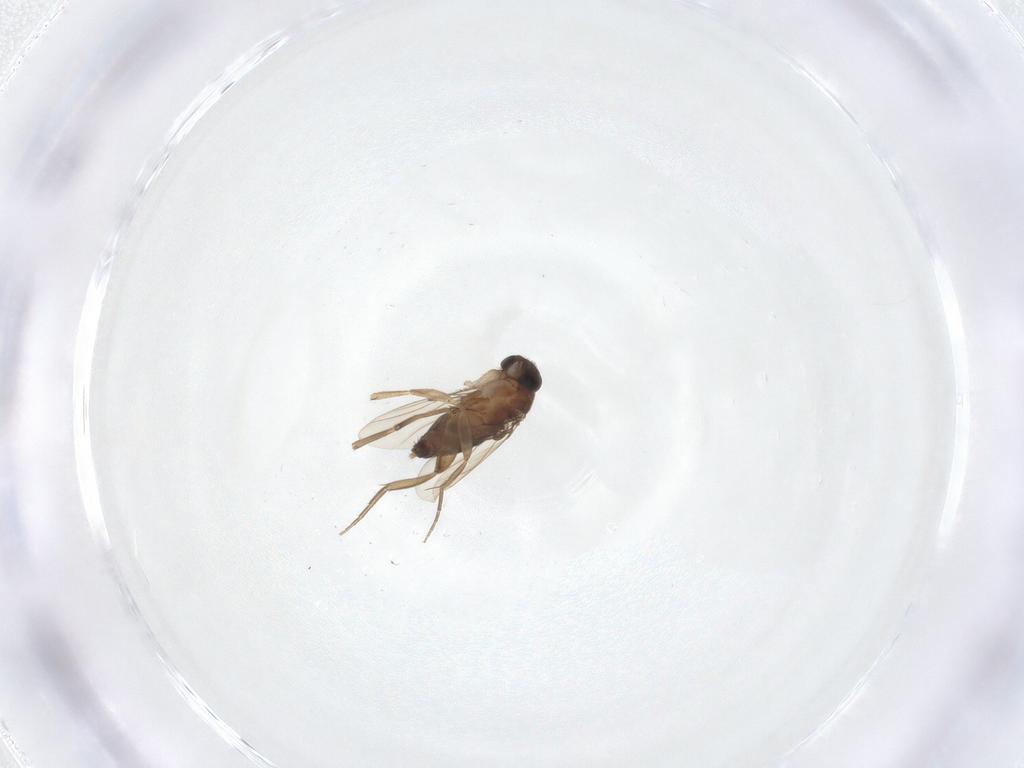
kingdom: Animalia
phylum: Arthropoda
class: Insecta
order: Diptera
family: Phoridae
